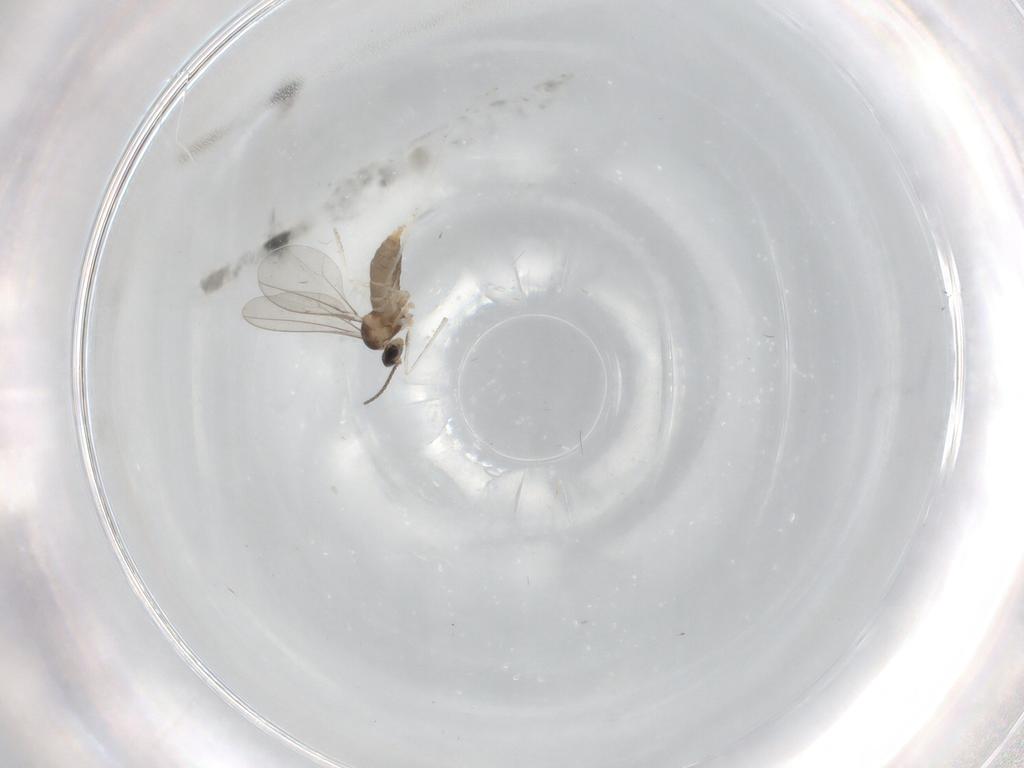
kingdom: Animalia
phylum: Arthropoda
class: Insecta
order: Diptera
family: Cecidomyiidae
